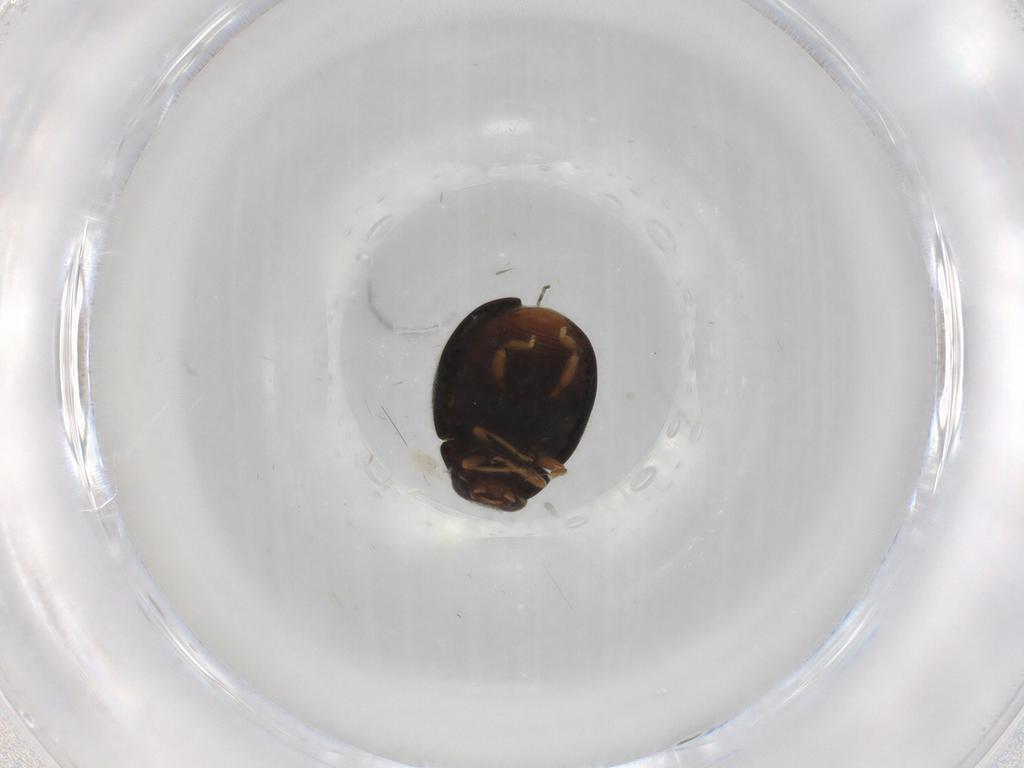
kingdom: Animalia
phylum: Arthropoda
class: Insecta
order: Coleoptera
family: Coccinellidae
